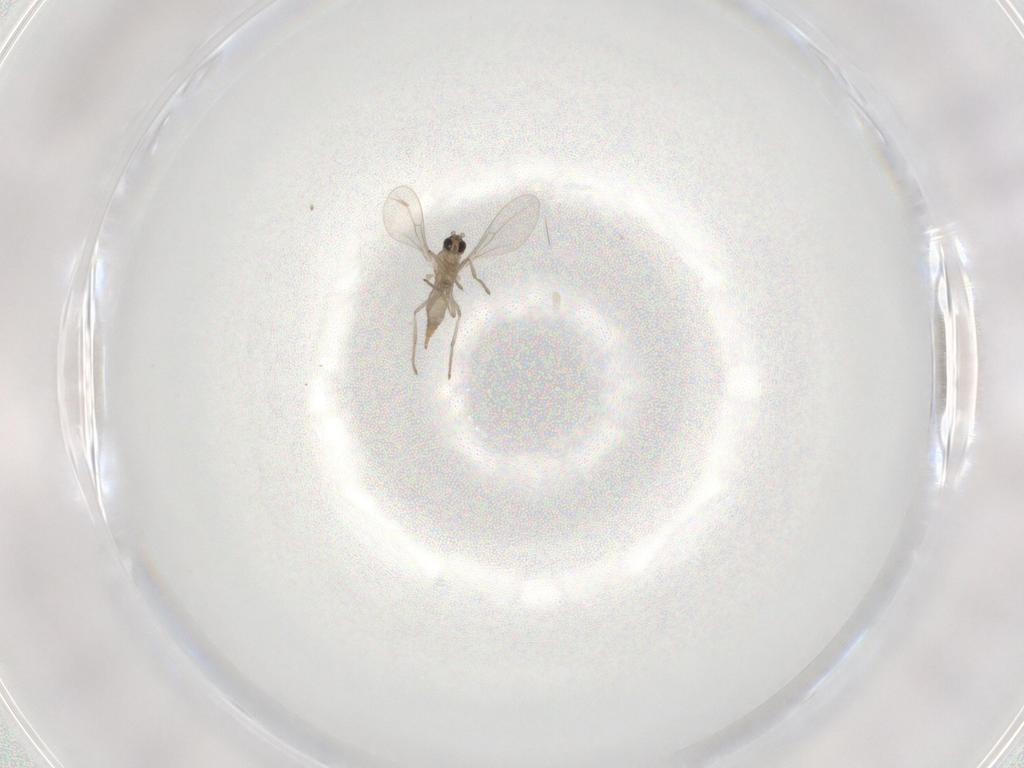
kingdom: Animalia
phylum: Arthropoda
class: Insecta
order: Diptera
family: Cecidomyiidae
